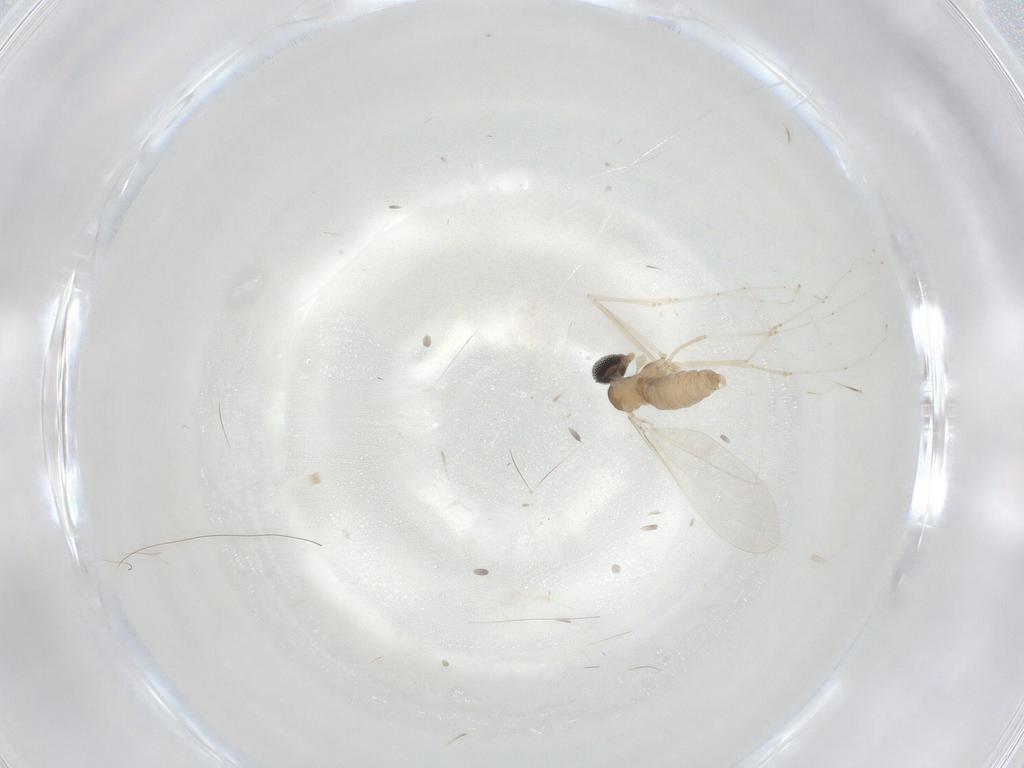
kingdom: Animalia
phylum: Arthropoda
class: Insecta
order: Diptera
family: Cecidomyiidae
